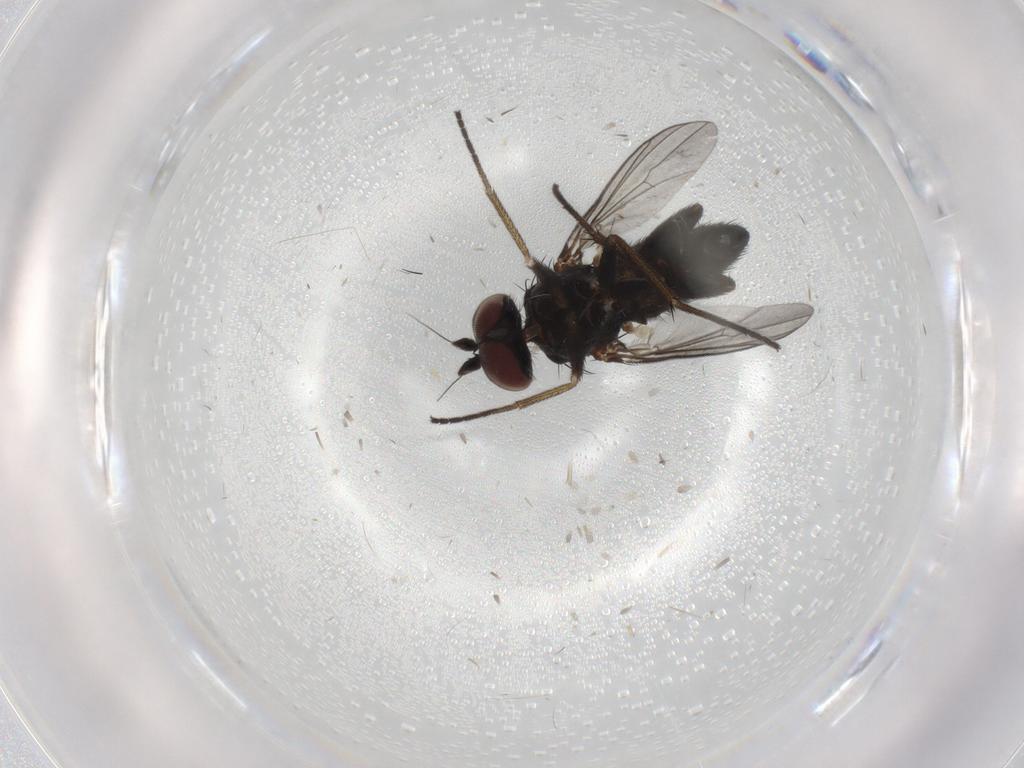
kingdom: Animalia
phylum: Arthropoda
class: Insecta
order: Diptera
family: Dolichopodidae
